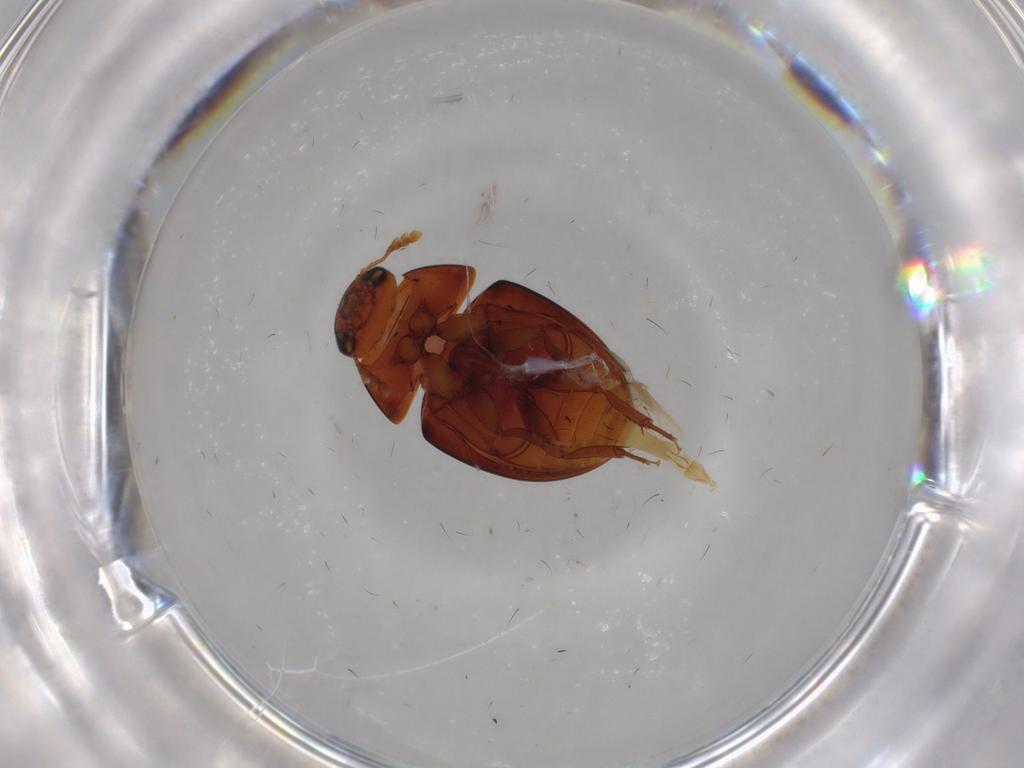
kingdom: Animalia
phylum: Arthropoda
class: Insecta
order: Coleoptera
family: Phalacridae
